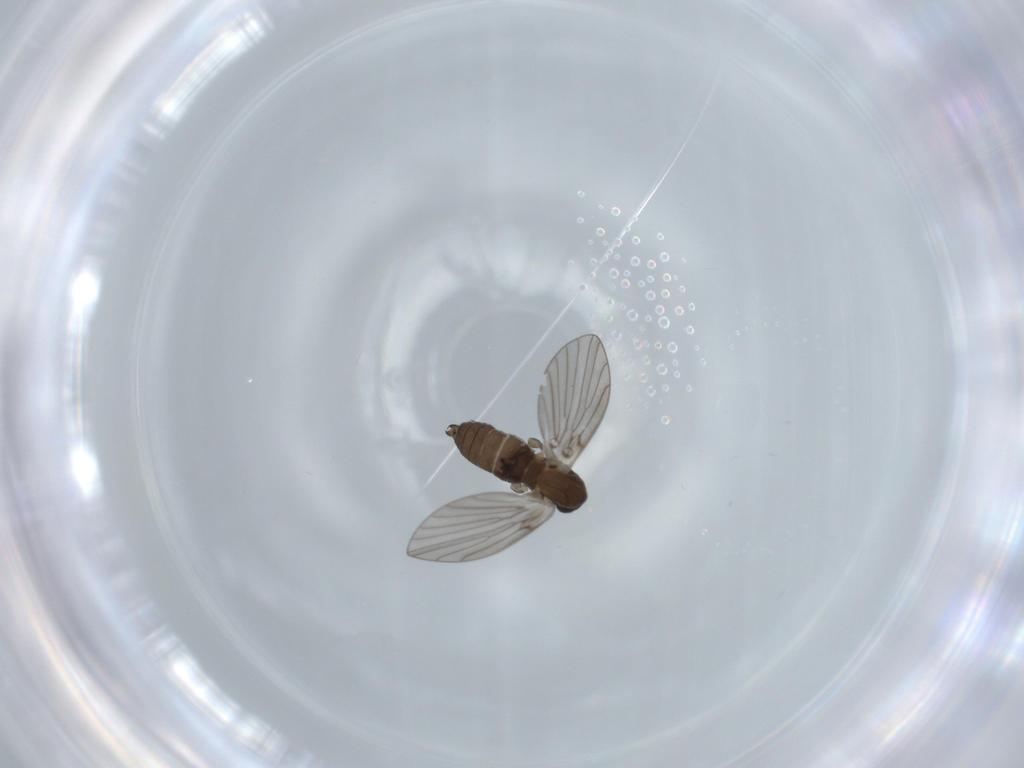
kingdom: Animalia
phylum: Arthropoda
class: Insecta
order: Diptera
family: Psychodidae
